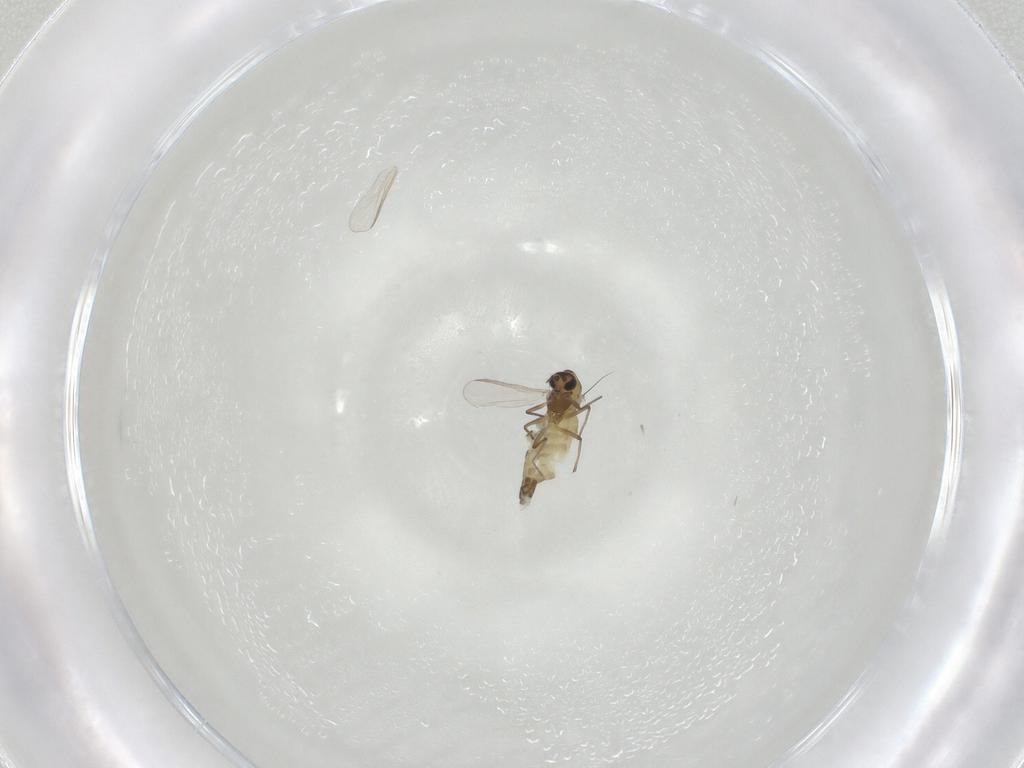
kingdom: Animalia
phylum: Arthropoda
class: Insecta
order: Diptera
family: Chironomidae
